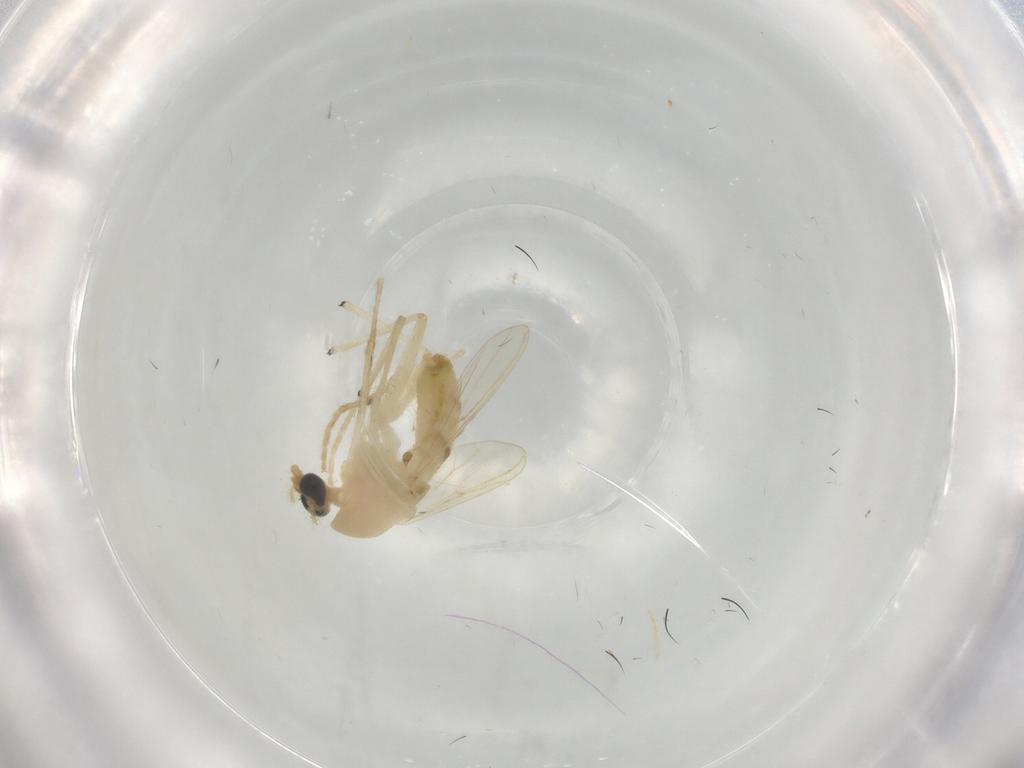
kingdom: Animalia
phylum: Arthropoda
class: Insecta
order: Diptera
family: Chironomidae
